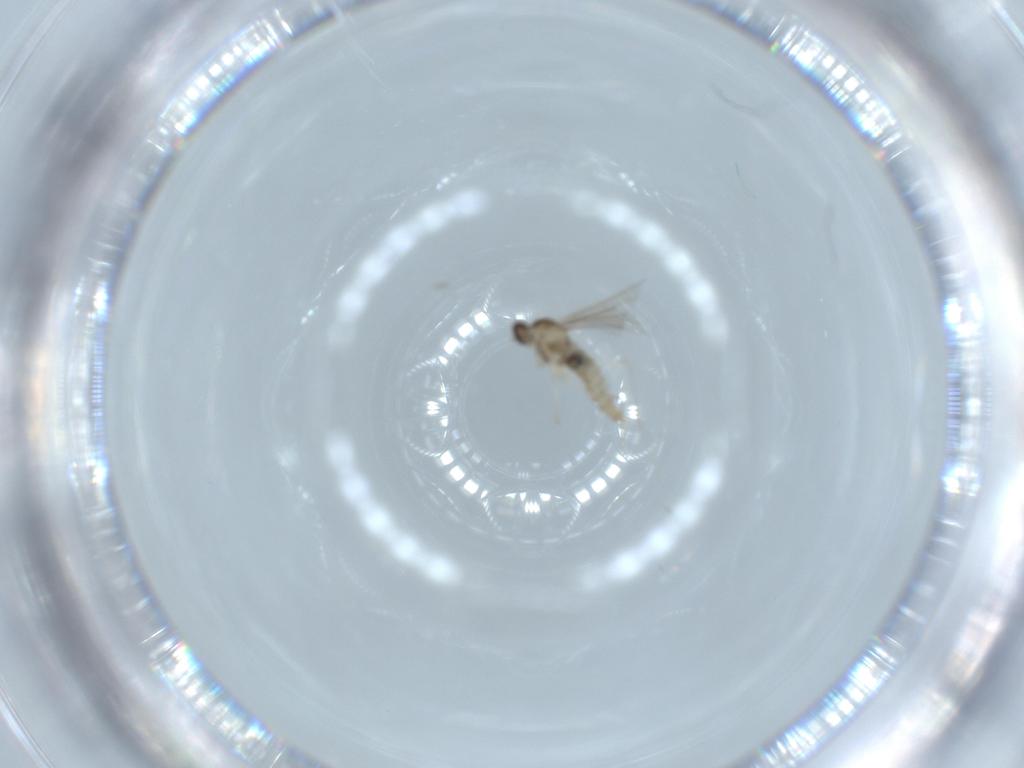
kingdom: Animalia
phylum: Arthropoda
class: Insecta
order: Diptera
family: Cecidomyiidae
